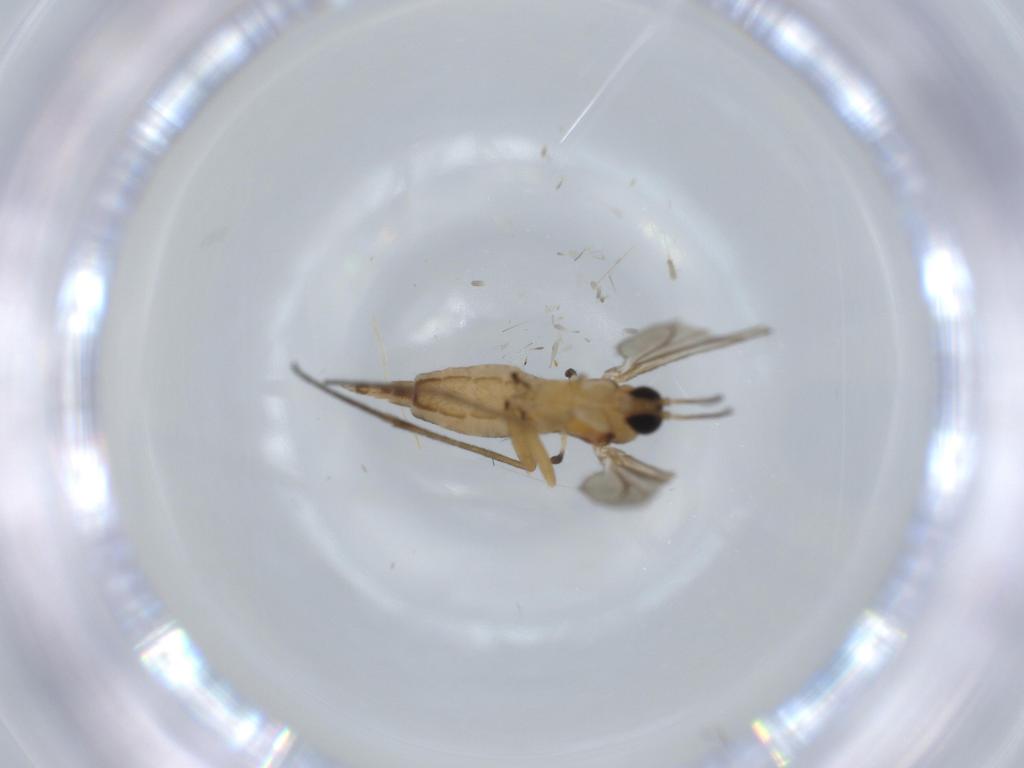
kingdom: Animalia
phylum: Arthropoda
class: Insecta
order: Diptera
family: Sciaridae
